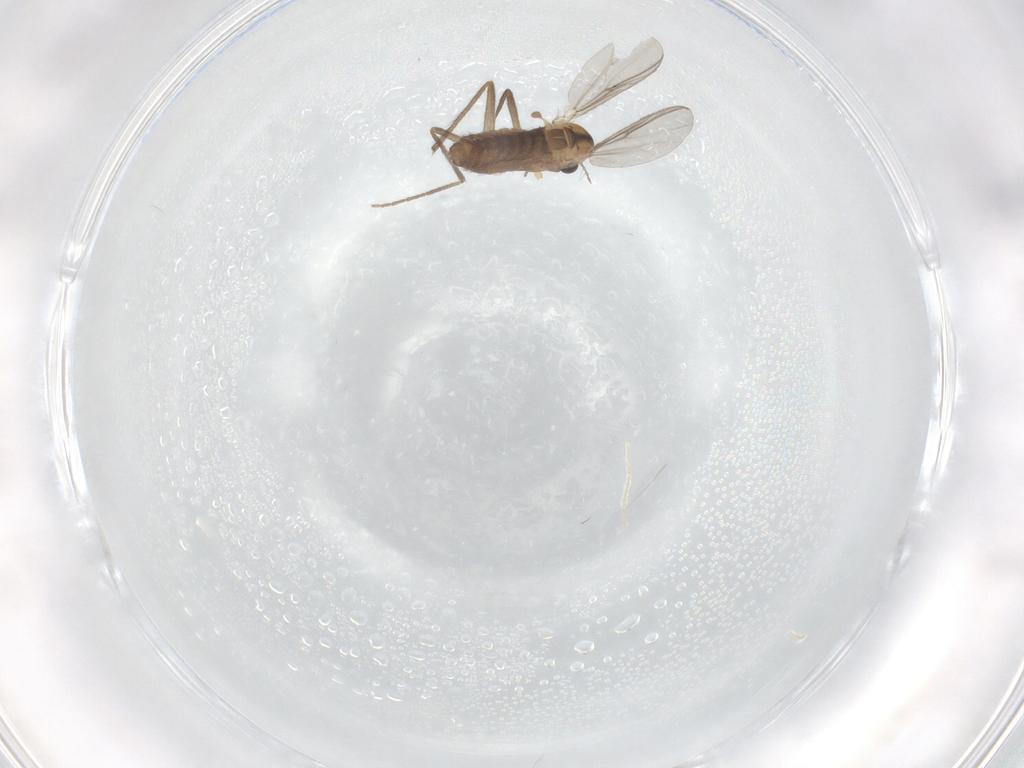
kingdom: Animalia
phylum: Arthropoda
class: Insecta
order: Diptera
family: Chironomidae
